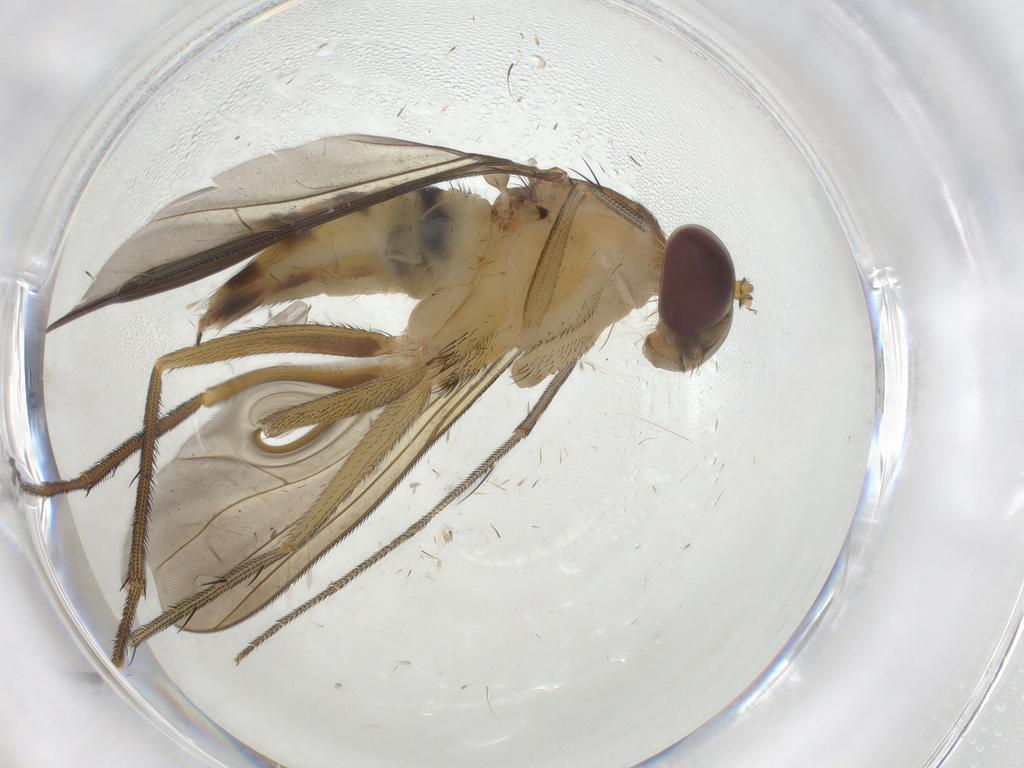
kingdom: Animalia
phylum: Arthropoda
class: Insecta
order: Diptera
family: Dolichopodidae
